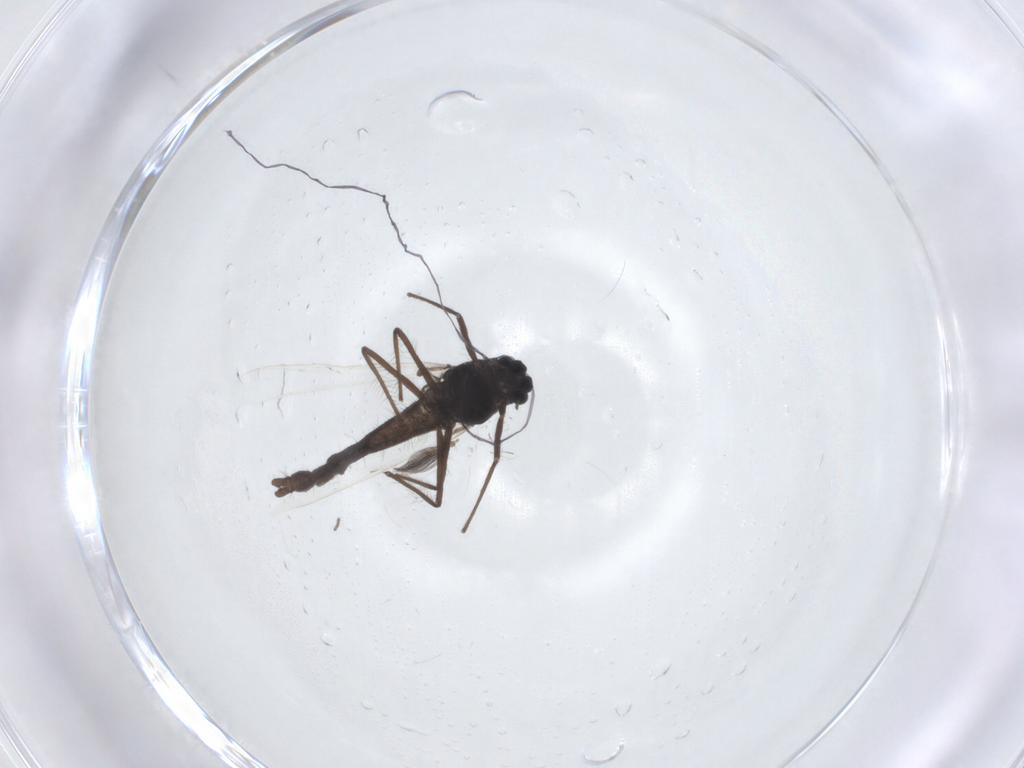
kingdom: Animalia
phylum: Arthropoda
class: Insecta
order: Diptera
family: Chironomidae
